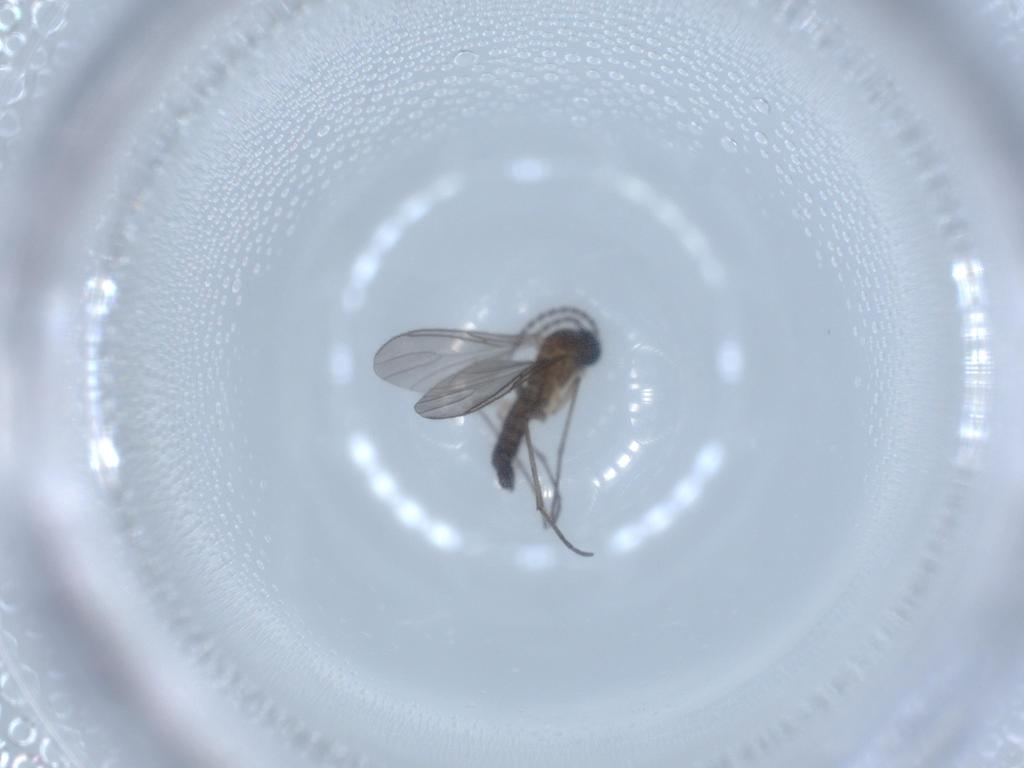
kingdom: Animalia
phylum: Arthropoda
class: Insecta
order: Diptera
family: Sciaridae
